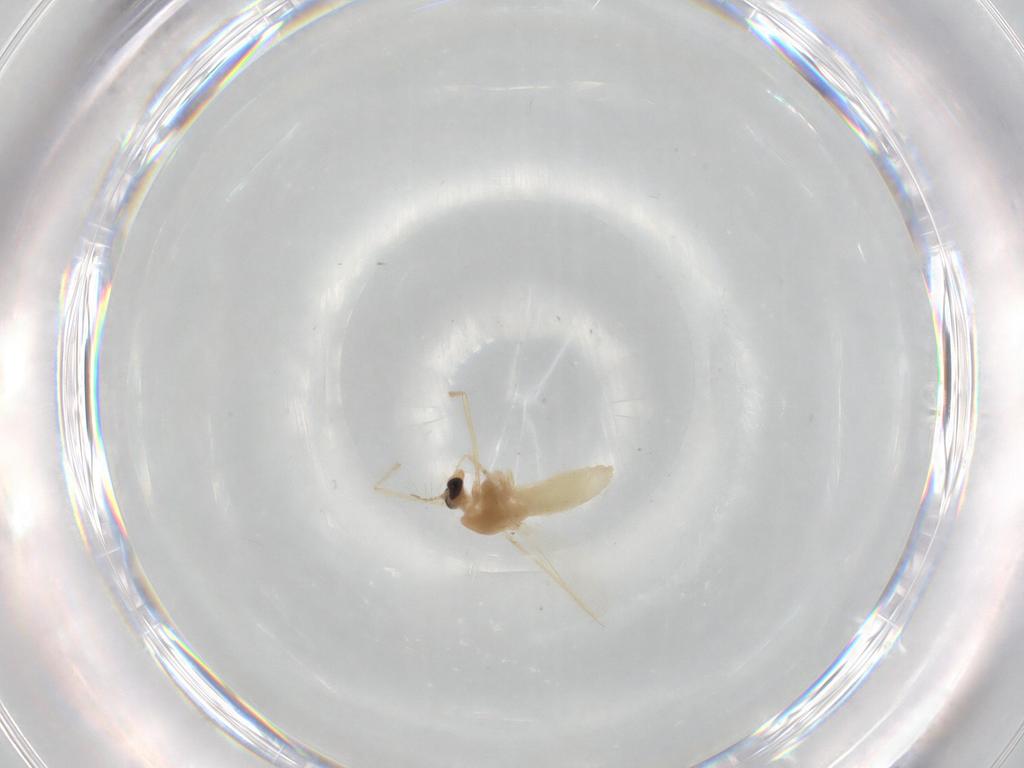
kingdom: Animalia
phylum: Arthropoda
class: Insecta
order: Diptera
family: Chironomidae
